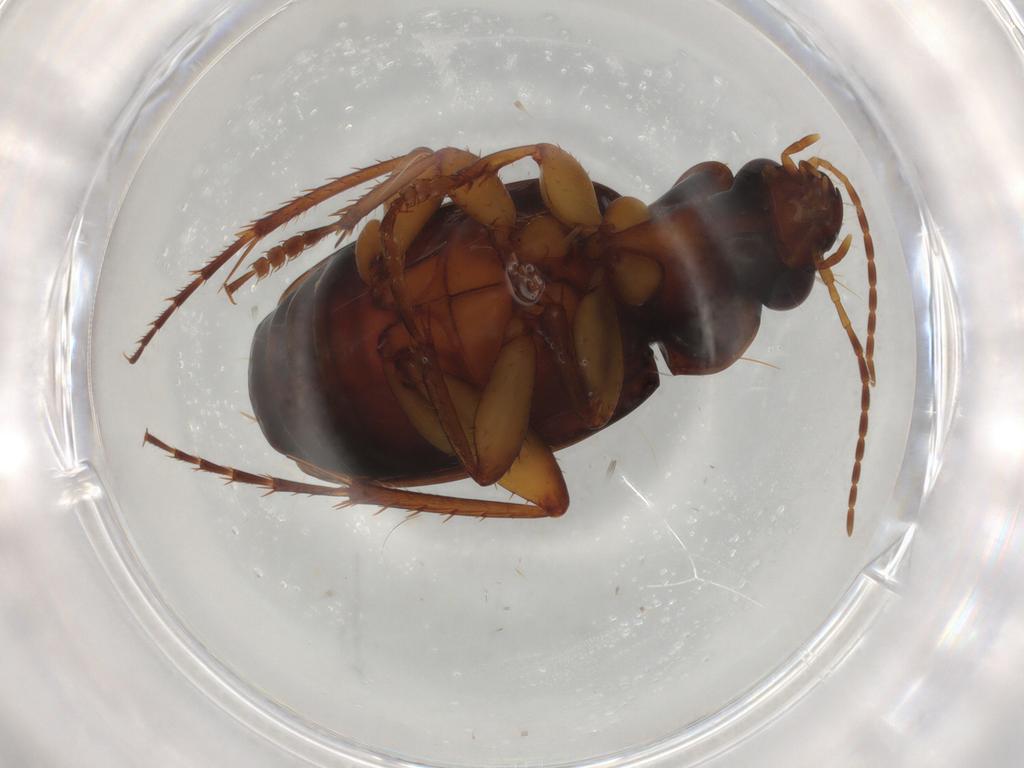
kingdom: Animalia
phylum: Arthropoda
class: Insecta
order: Coleoptera
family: Carabidae
